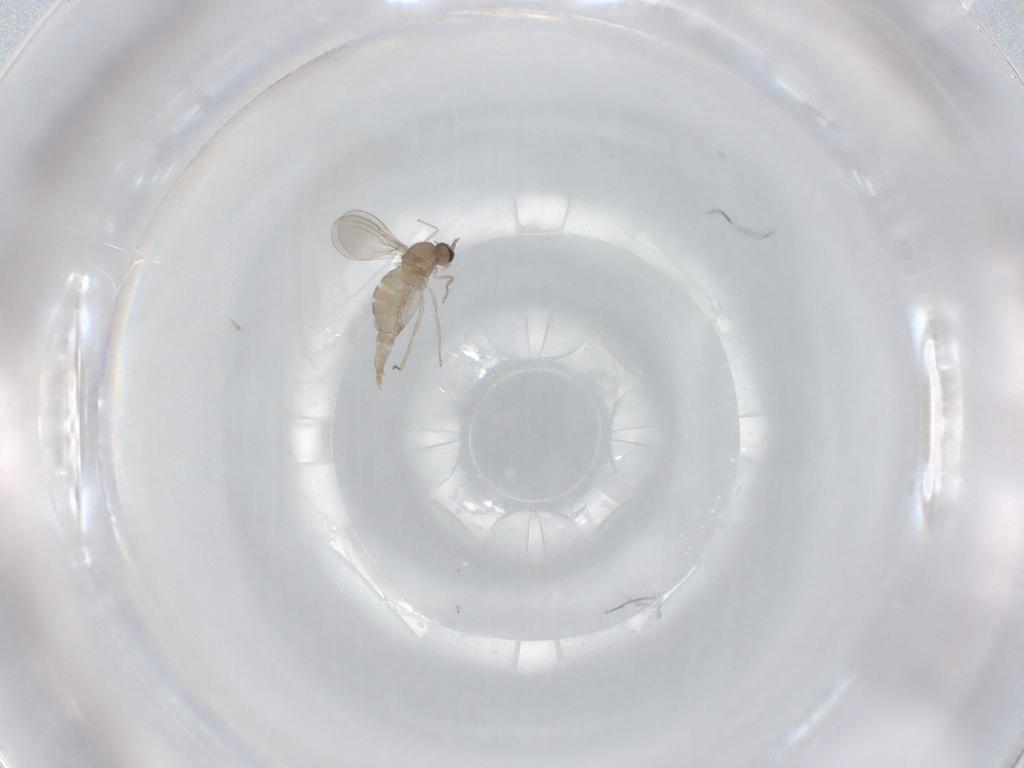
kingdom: Animalia
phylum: Arthropoda
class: Insecta
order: Diptera
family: Cecidomyiidae
